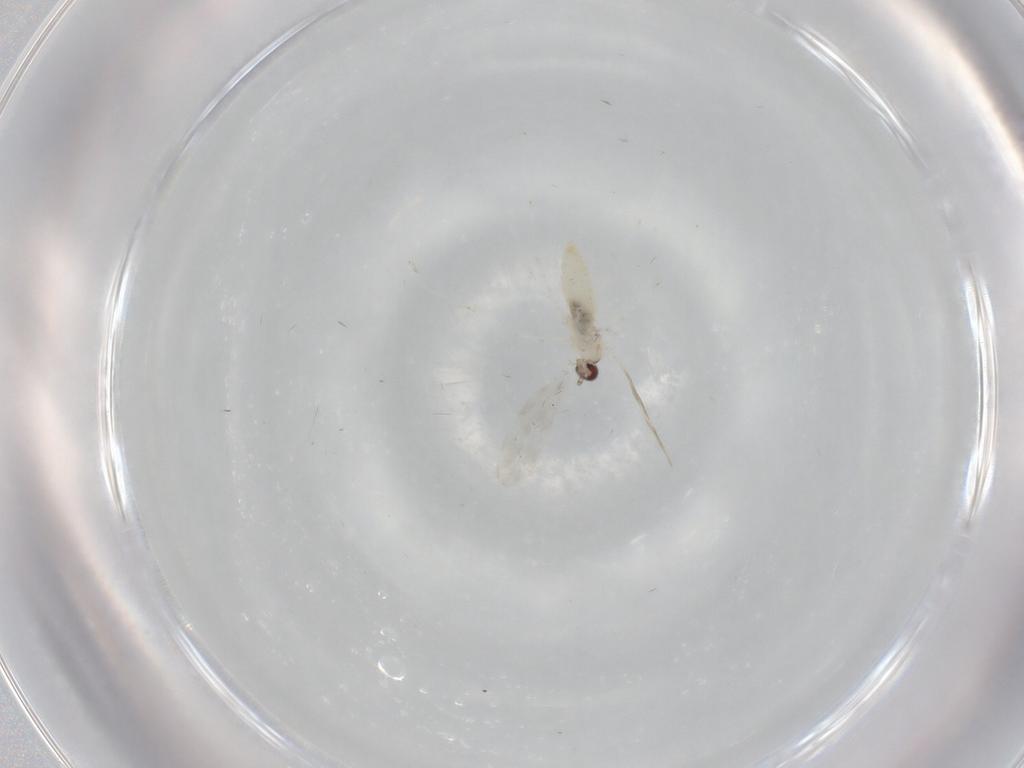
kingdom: Animalia
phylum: Arthropoda
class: Insecta
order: Diptera
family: Cecidomyiidae
